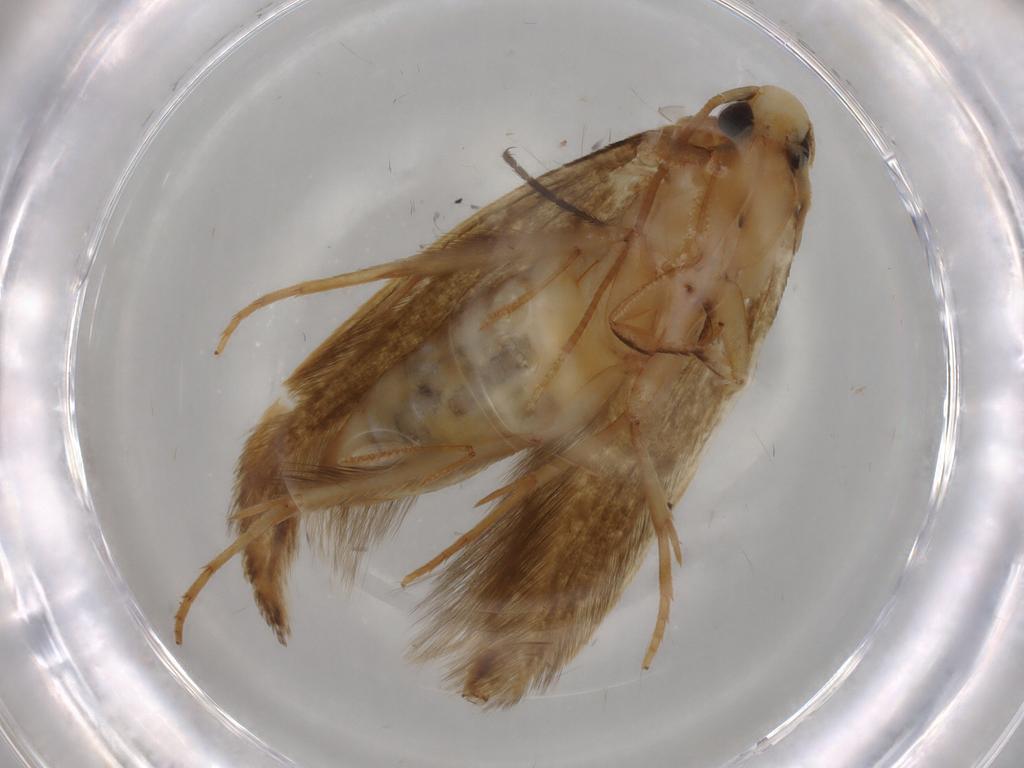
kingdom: Animalia
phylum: Arthropoda
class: Insecta
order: Lepidoptera
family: Tineidae
